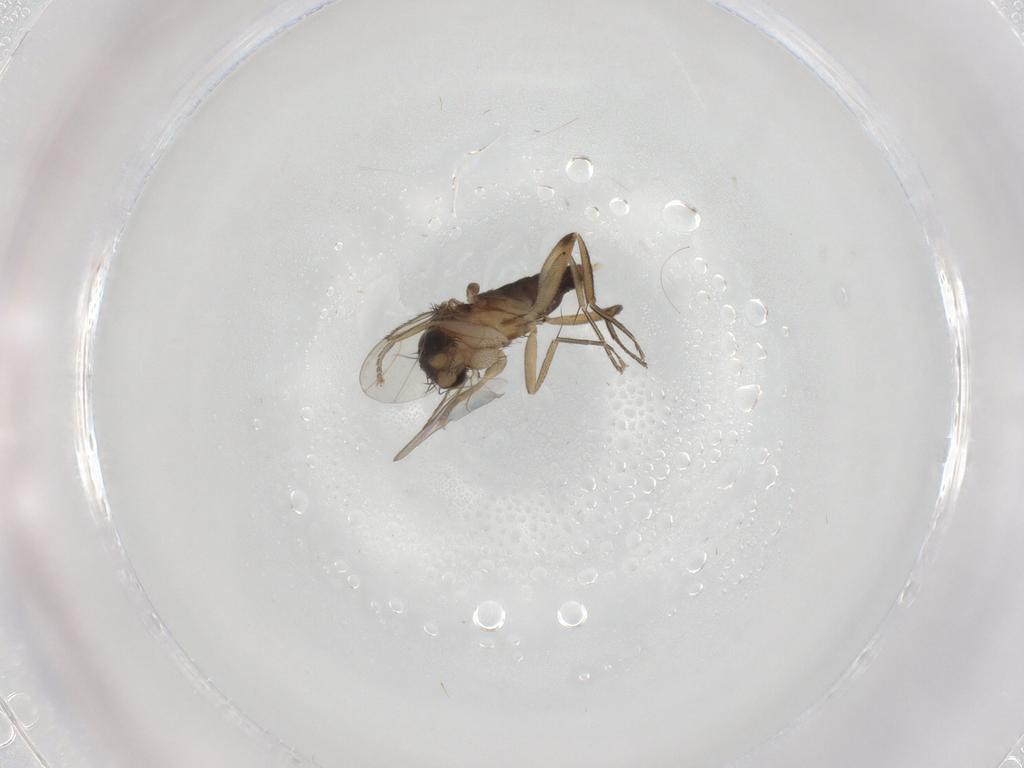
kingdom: Animalia
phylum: Arthropoda
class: Insecta
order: Diptera
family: Phoridae
